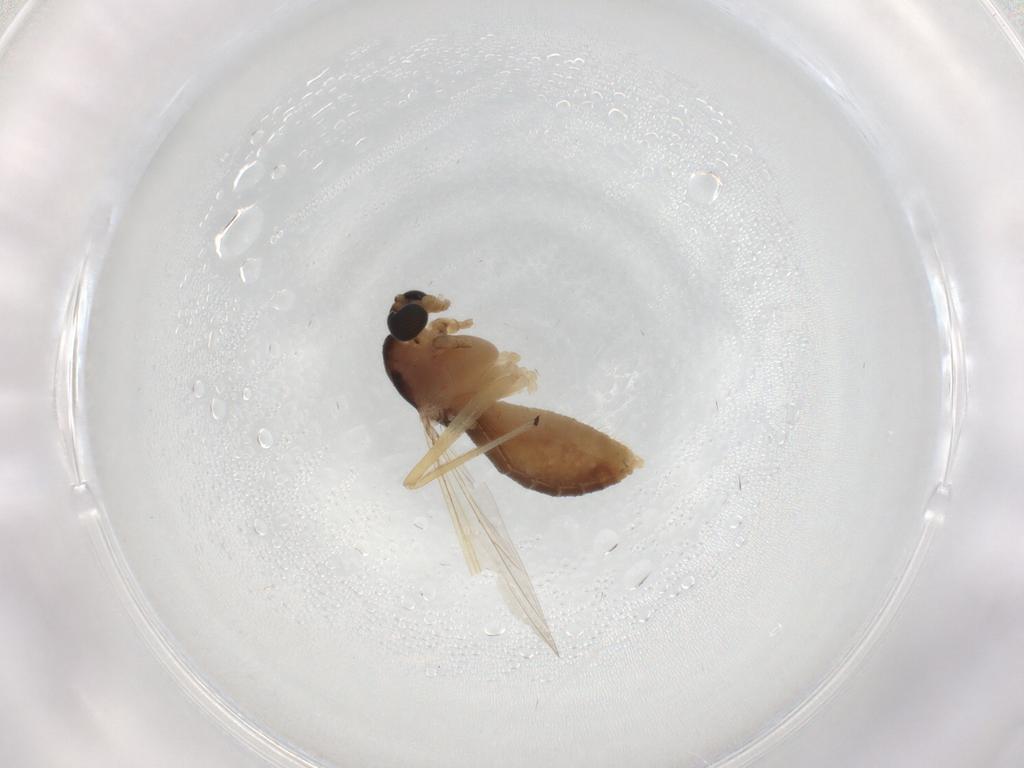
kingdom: Animalia
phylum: Arthropoda
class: Insecta
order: Diptera
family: Chironomidae
